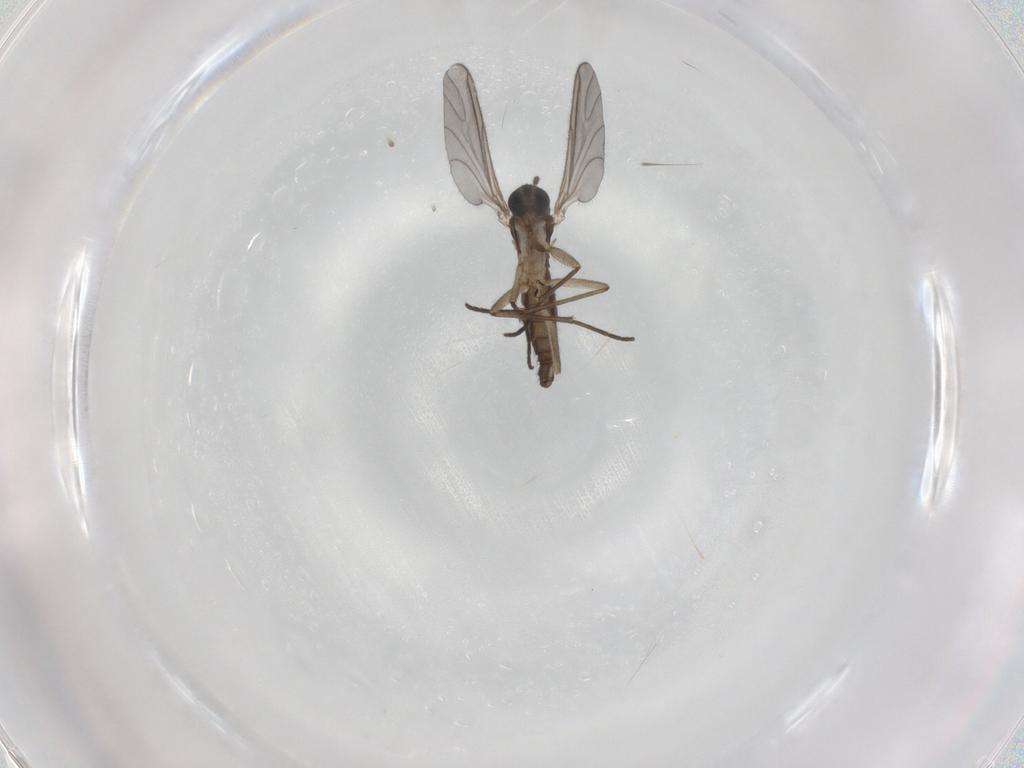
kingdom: Animalia
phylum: Arthropoda
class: Insecta
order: Diptera
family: Sciaridae
